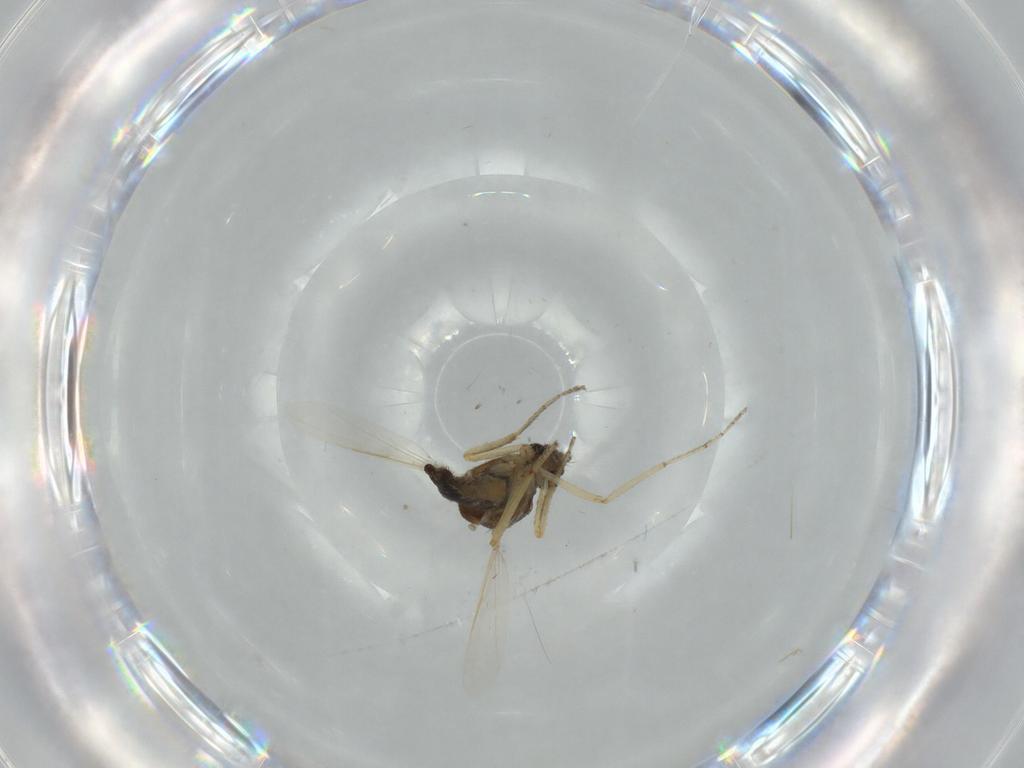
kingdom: Animalia
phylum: Arthropoda
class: Insecta
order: Diptera
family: Ceratopogonidae
